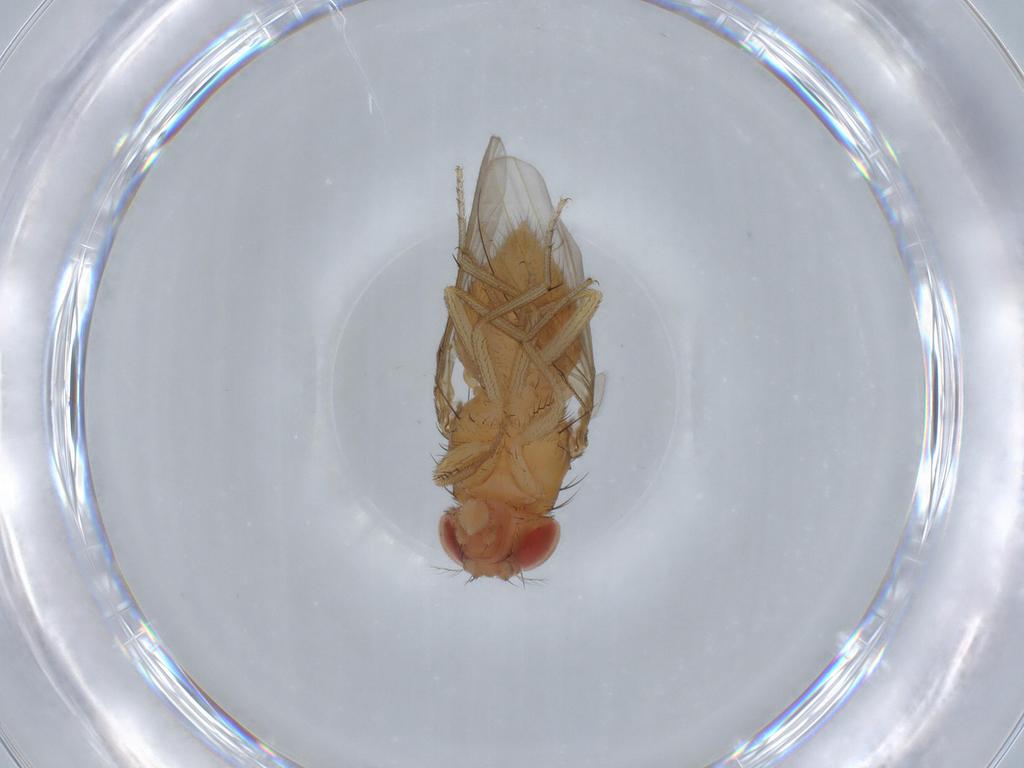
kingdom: Animalia
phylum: Arthropoda
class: Insecta
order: Diptera
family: Drosophilidae
